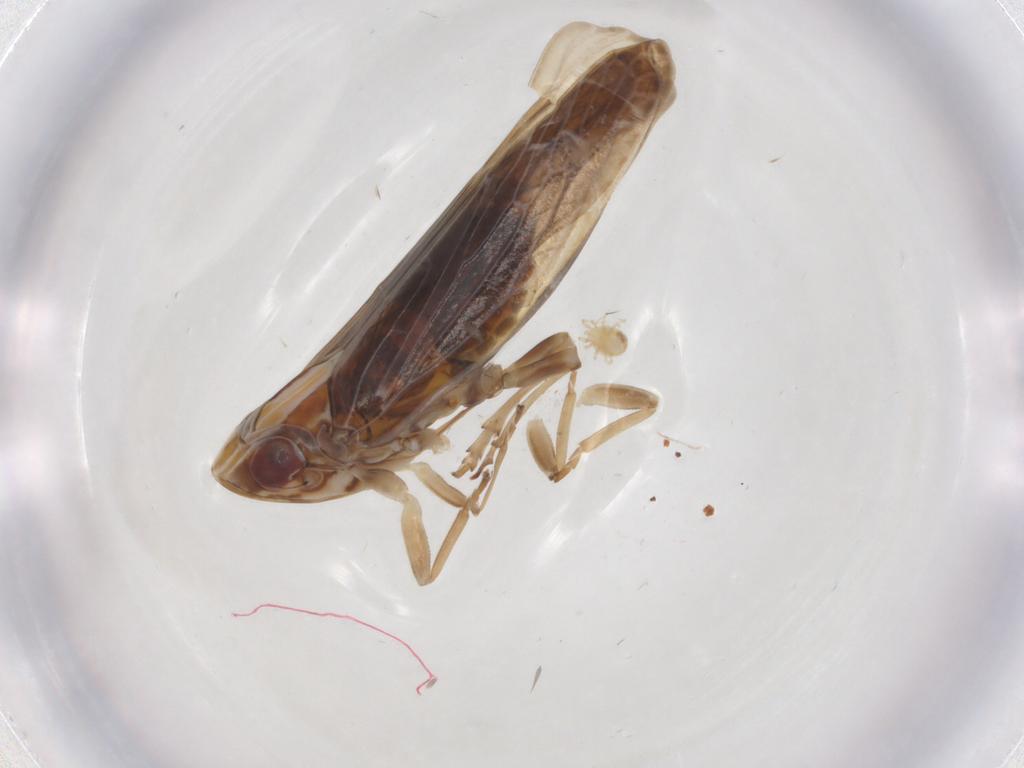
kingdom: Animalia
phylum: Arthropoda
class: Insecta
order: Hemiptera
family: Achilidae
